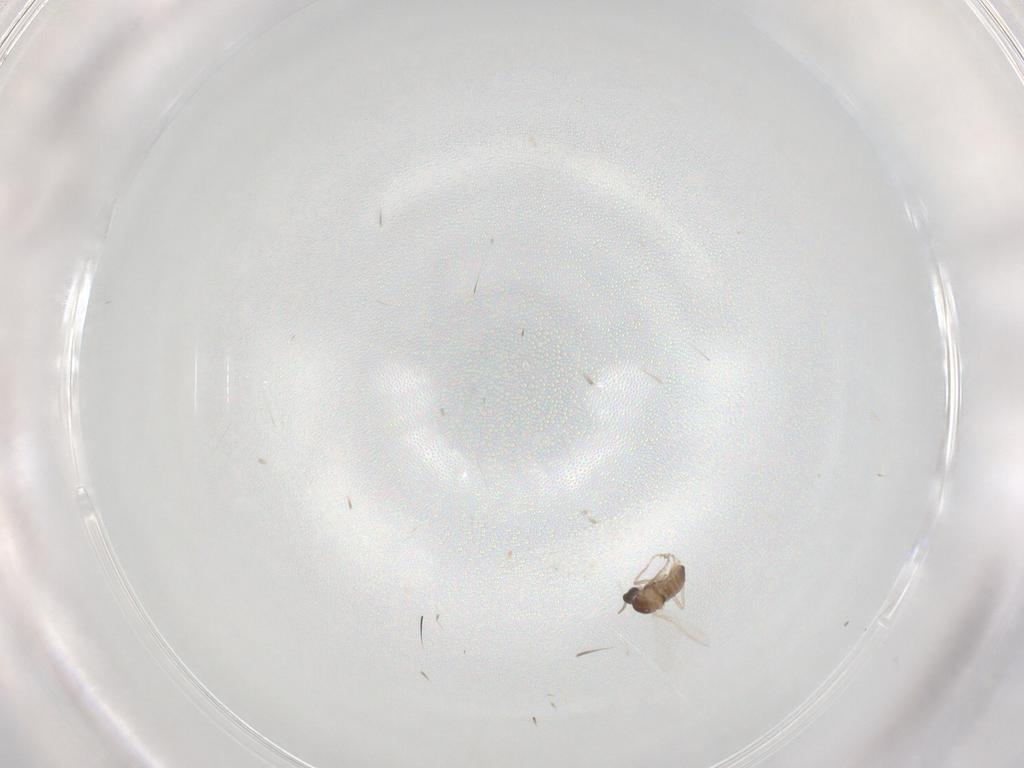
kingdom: Animalia
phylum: Arthropoda
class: Insecta
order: Diptera
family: Cecidomyiidae
